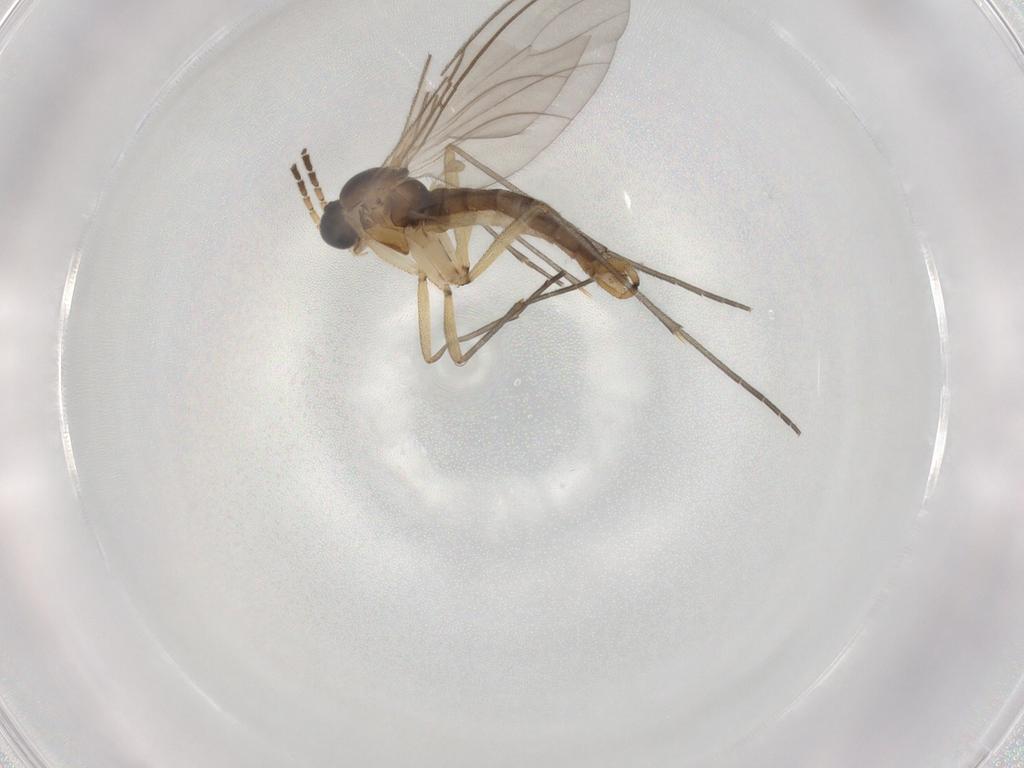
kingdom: Animalia
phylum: Arthropoda
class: Insecta
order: Diptera
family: Sciaridae
